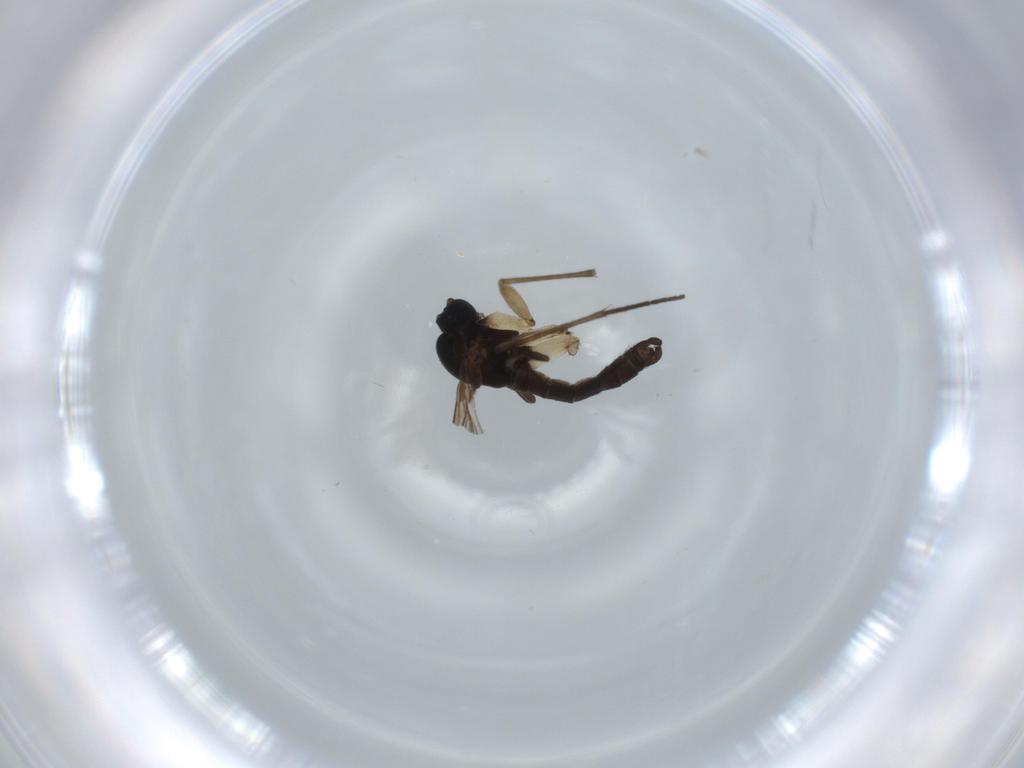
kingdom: Animalia
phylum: Arthropoda
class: Insecta
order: Diptera
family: Sciaridae
